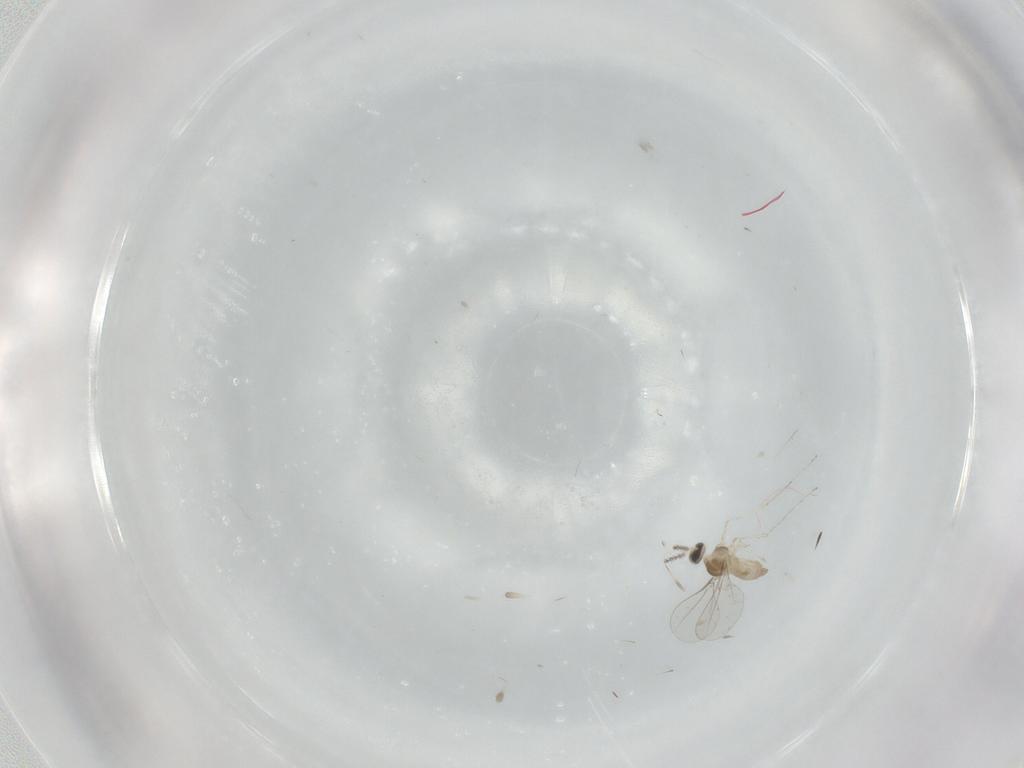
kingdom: Animalia
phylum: Arthropoda
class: Insecta
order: Diptera
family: Cecidomyiidae
